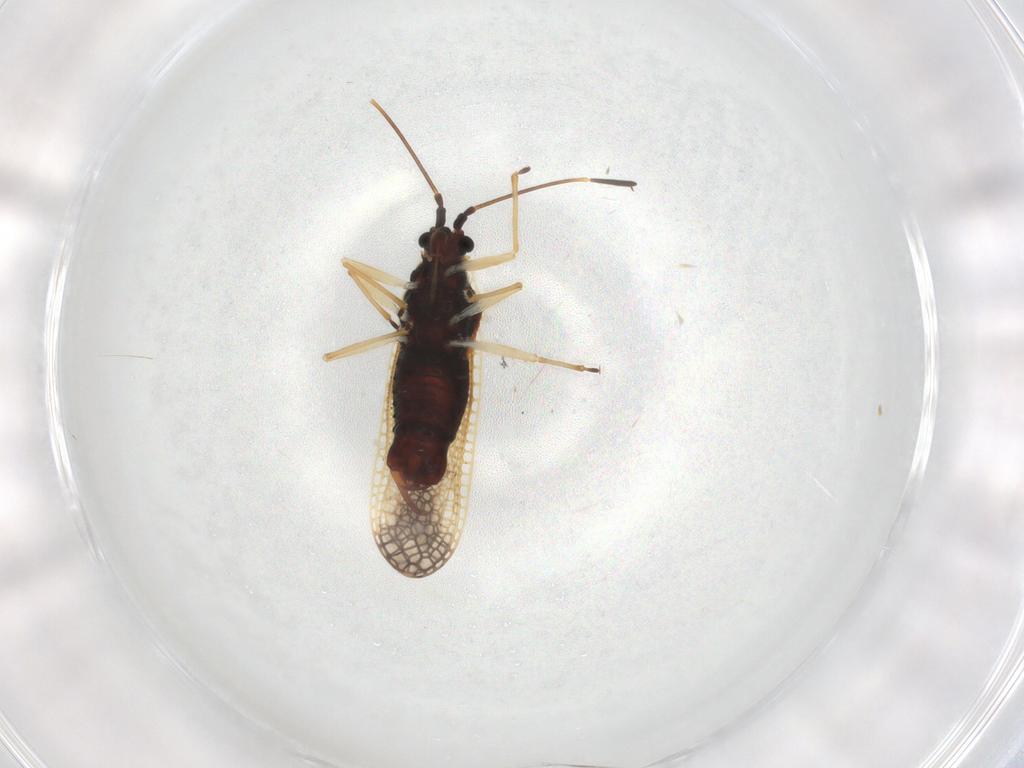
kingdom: Animalia
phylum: Arthropoda
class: Insecta
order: Hemiptera
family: Tingidae
